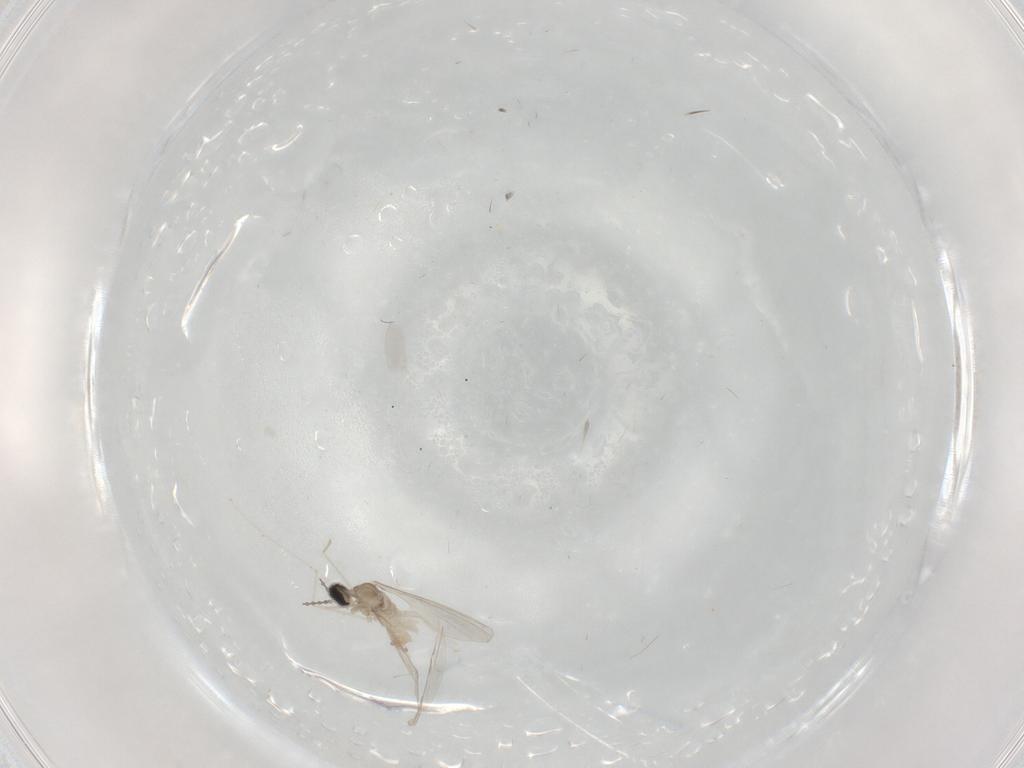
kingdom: Animalia
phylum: Arthropoda
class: Insecta
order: Diptera
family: Cecidomyiidae
